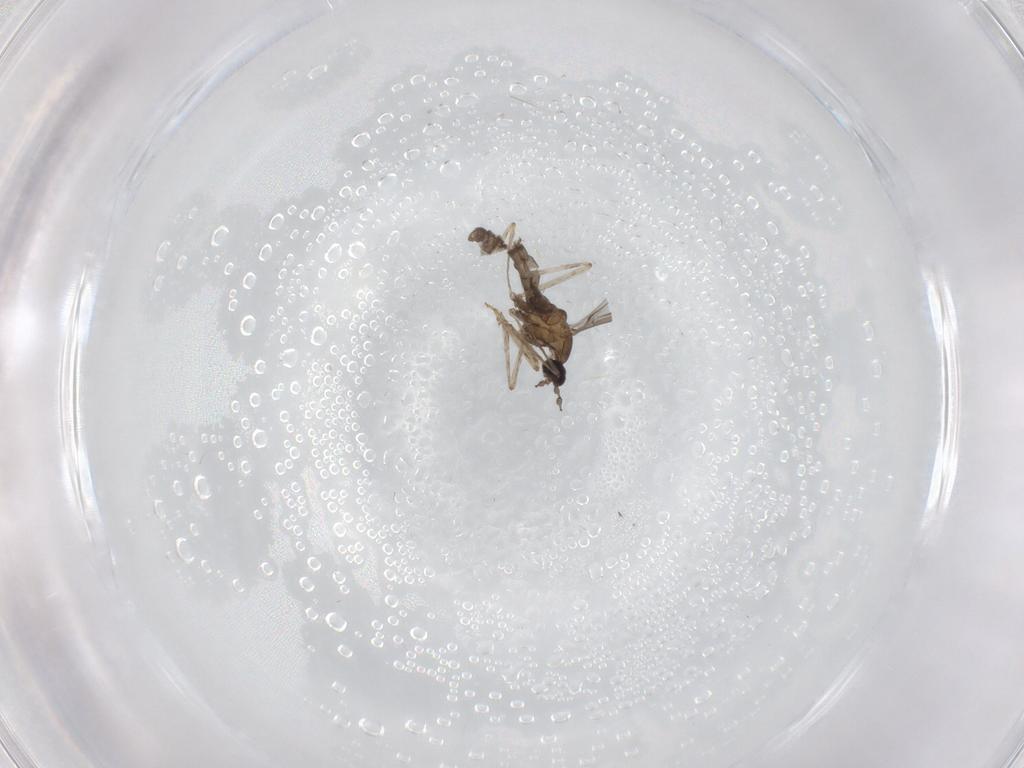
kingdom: Animalia
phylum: Arthropoda
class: Insecta
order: Diptera
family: Cecidomyiidae
